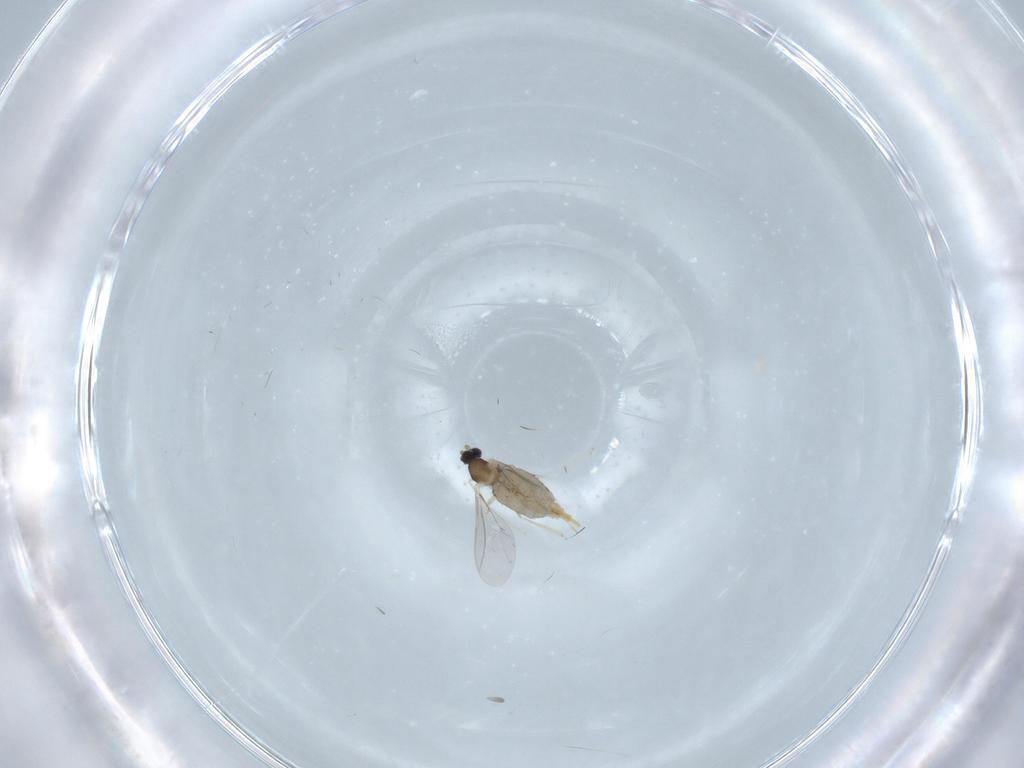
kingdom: Animalia
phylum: Arthropoda
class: Insecta
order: Diptera
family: Cecidomyiidae
